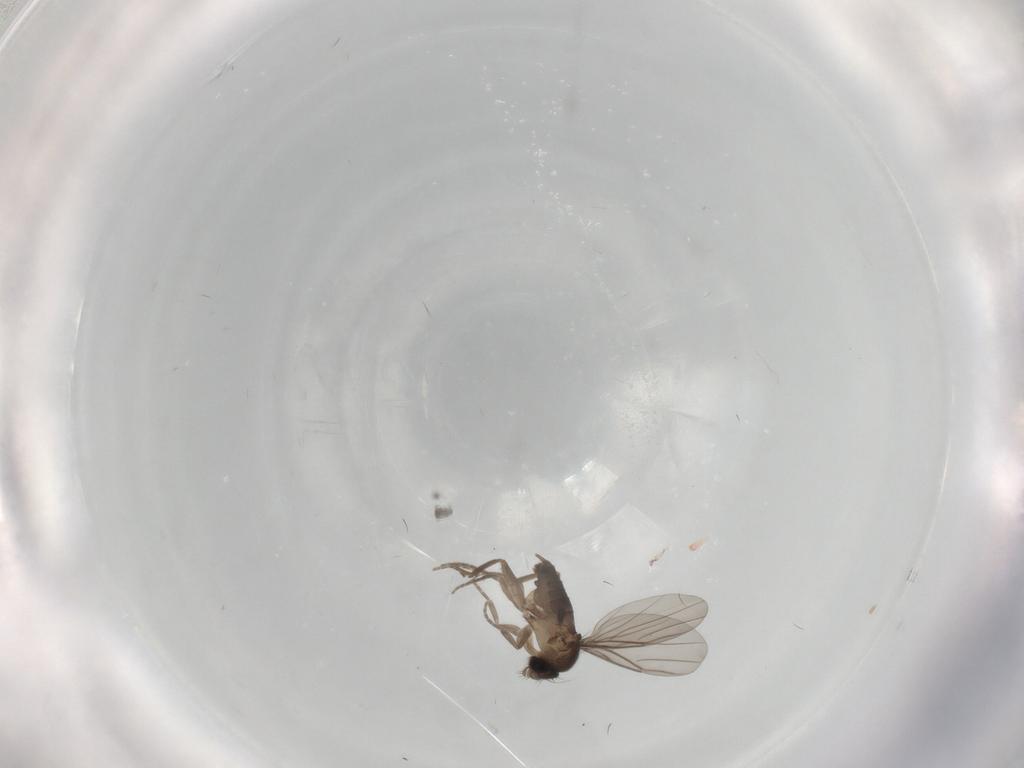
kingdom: Animalia
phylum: Arthropoda
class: Insecta
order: Diptera
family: Phoridae
